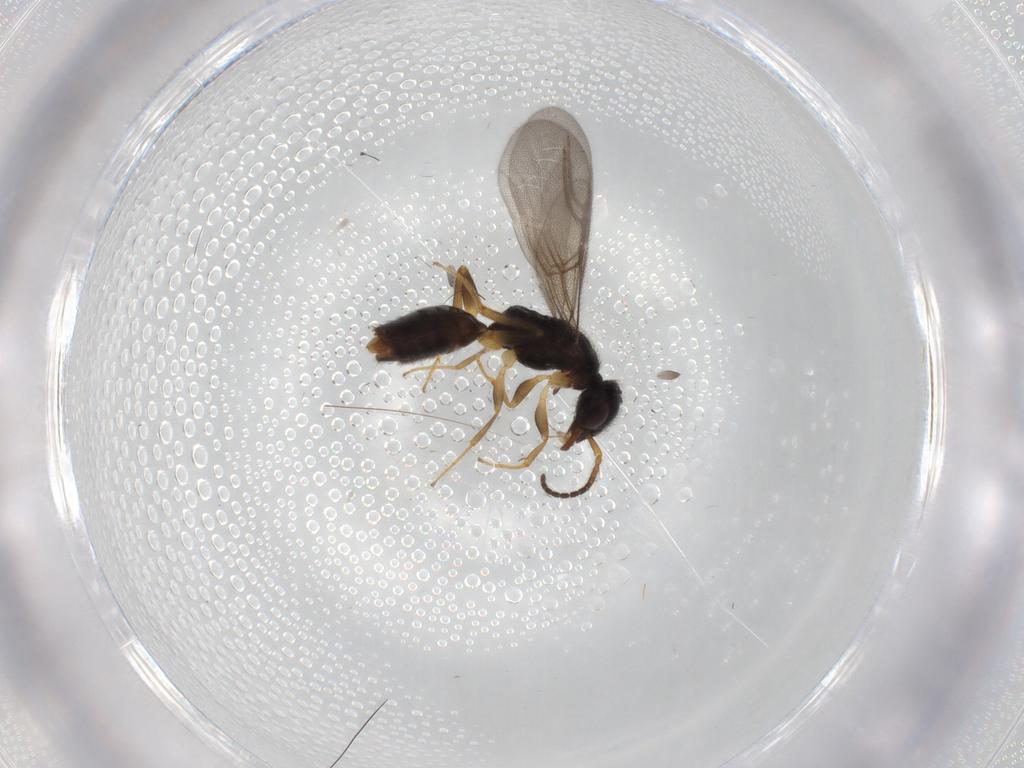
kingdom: Animalia
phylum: Arthropoda
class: Insecta
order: Hymenoptera
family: Bethylidae
